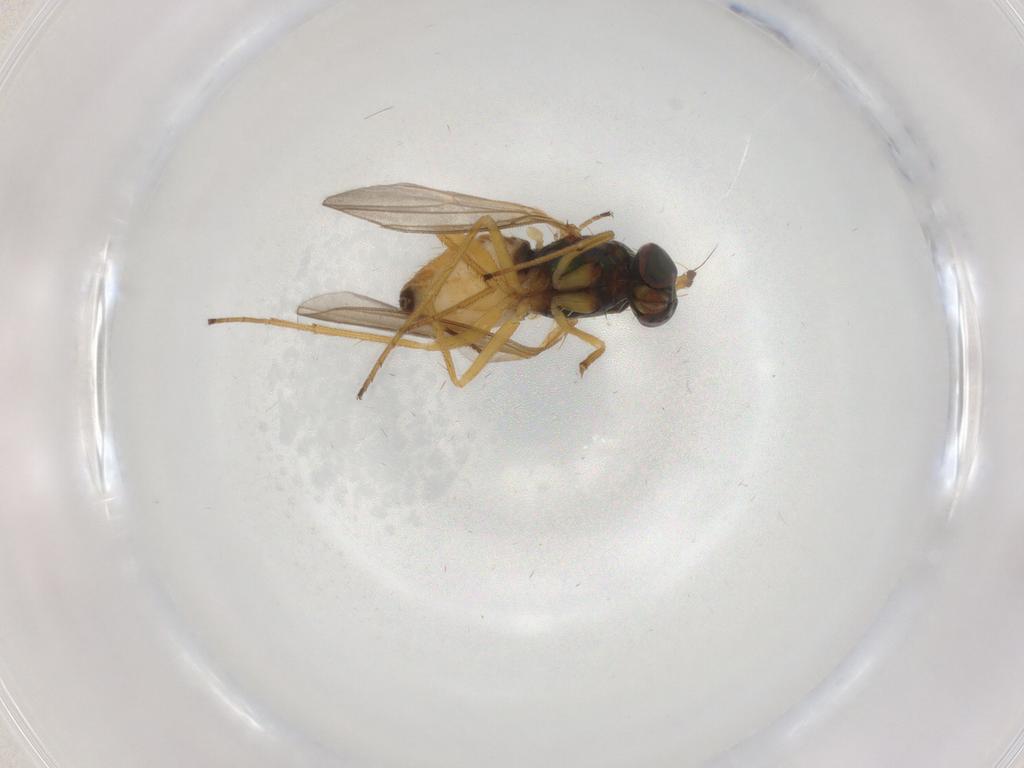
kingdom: Animalia
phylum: Arthropoda
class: Insecta
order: Diptera
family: Dolichopodidae
